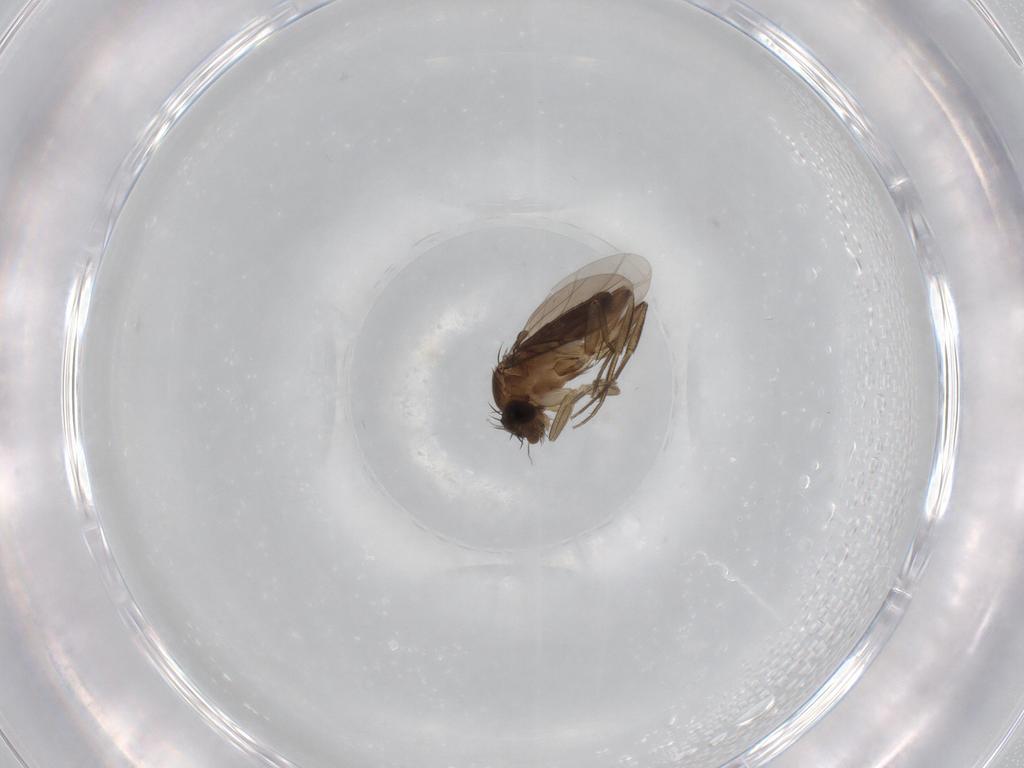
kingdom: Animalia
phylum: Arthropoda
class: Insecta
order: Diptera
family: Phoridae
